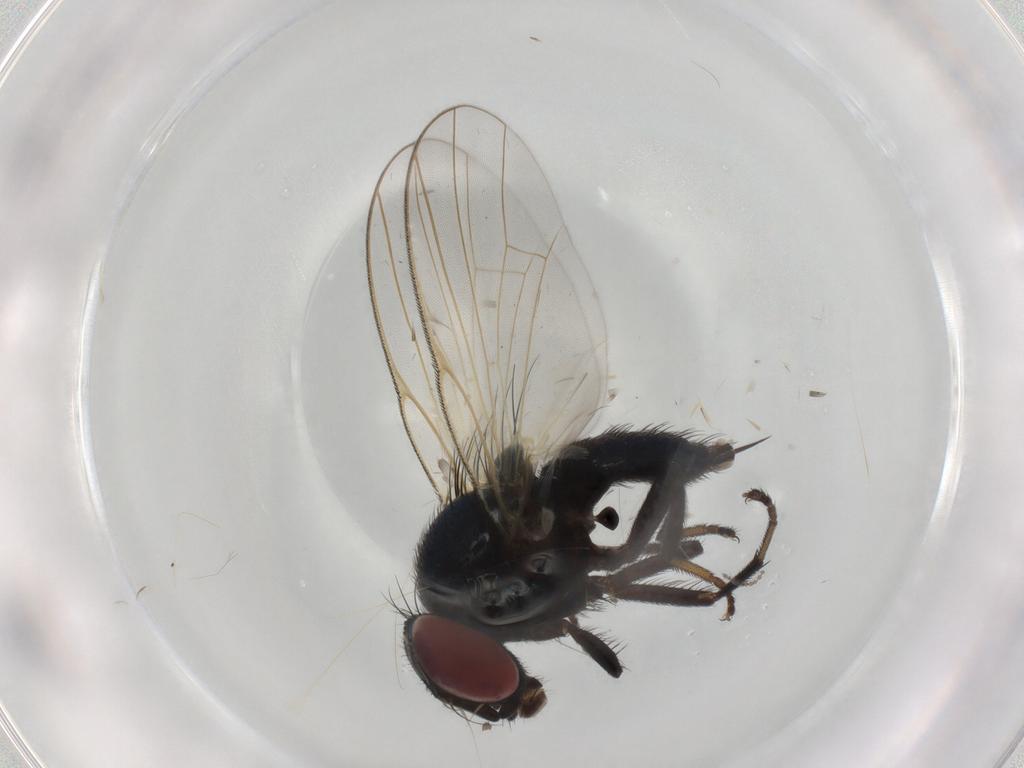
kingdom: Animalia
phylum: Arthropoda
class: Insecta
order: Diptera
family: Lonchaeidae
